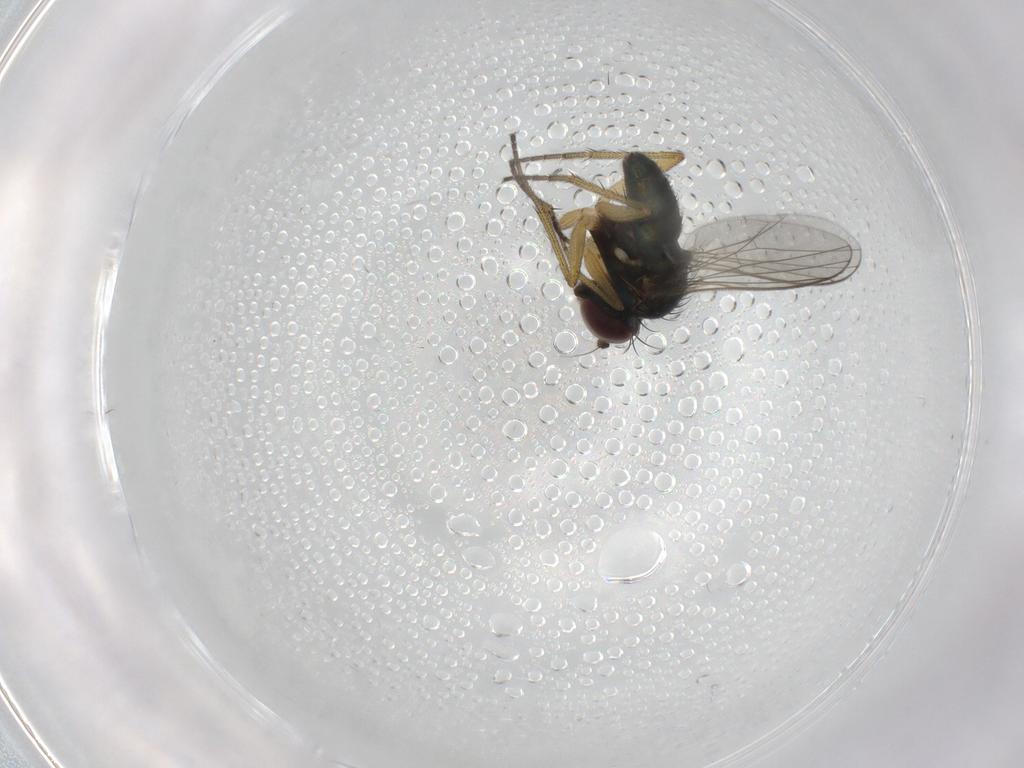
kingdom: Animalia
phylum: Arthropoda
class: Insecta
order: Diptera
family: Dolichopodidae
